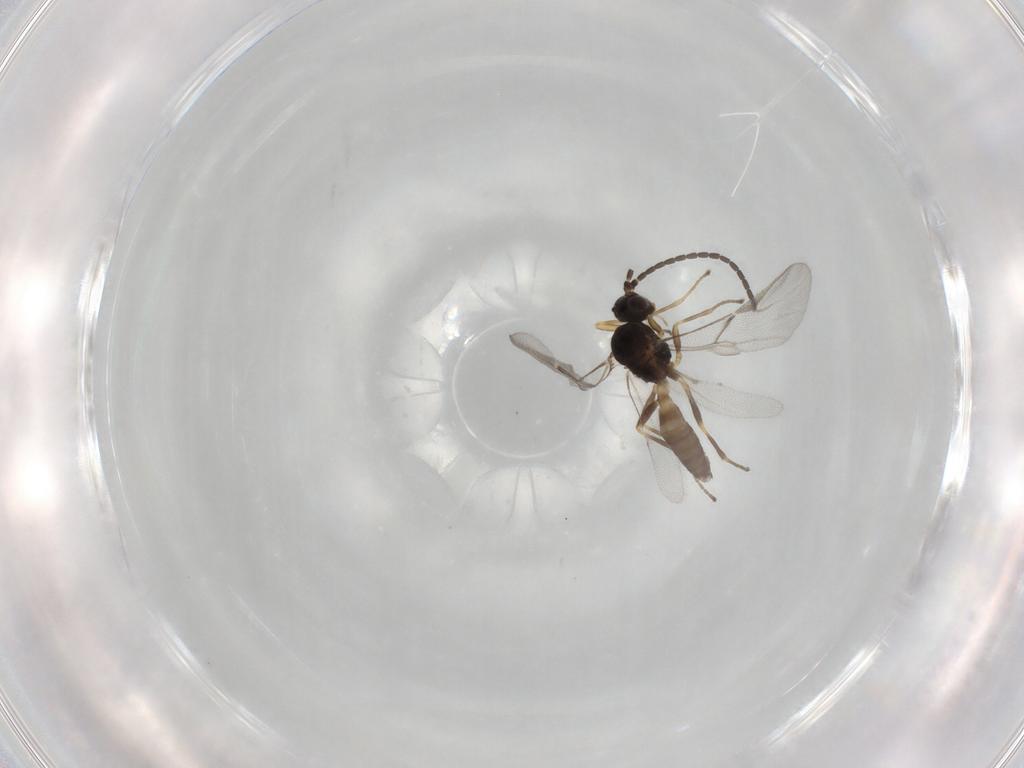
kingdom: Animalia
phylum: Arthropoda
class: Insecta
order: Hymenoptera
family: Braconidae
